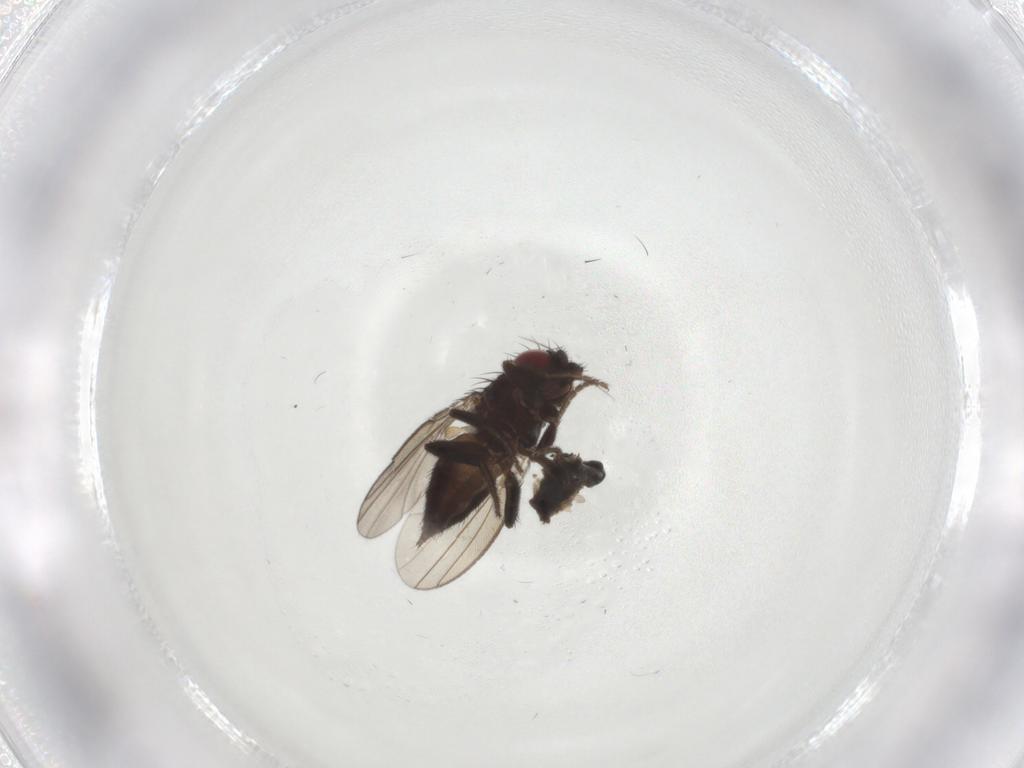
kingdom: Animalia
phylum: Arthropoda
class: Insecta
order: Diptera
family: Milichiidae
